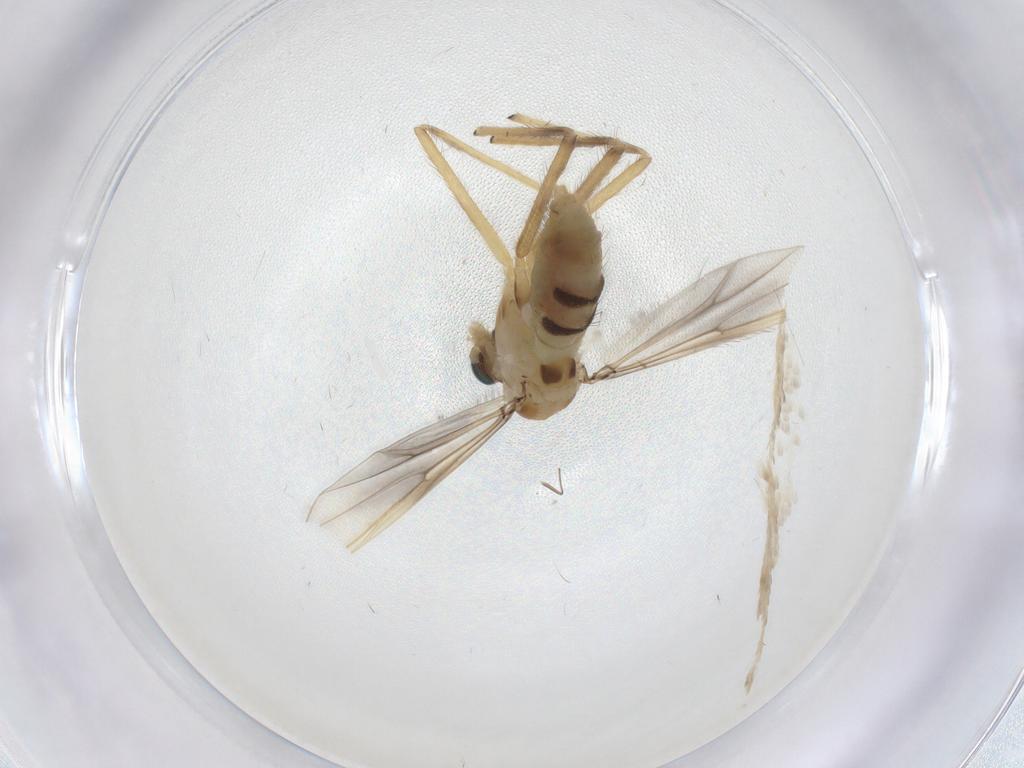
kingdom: Animalia
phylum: Arthropoda
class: Insecta
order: Diptera
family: Chironomidae
